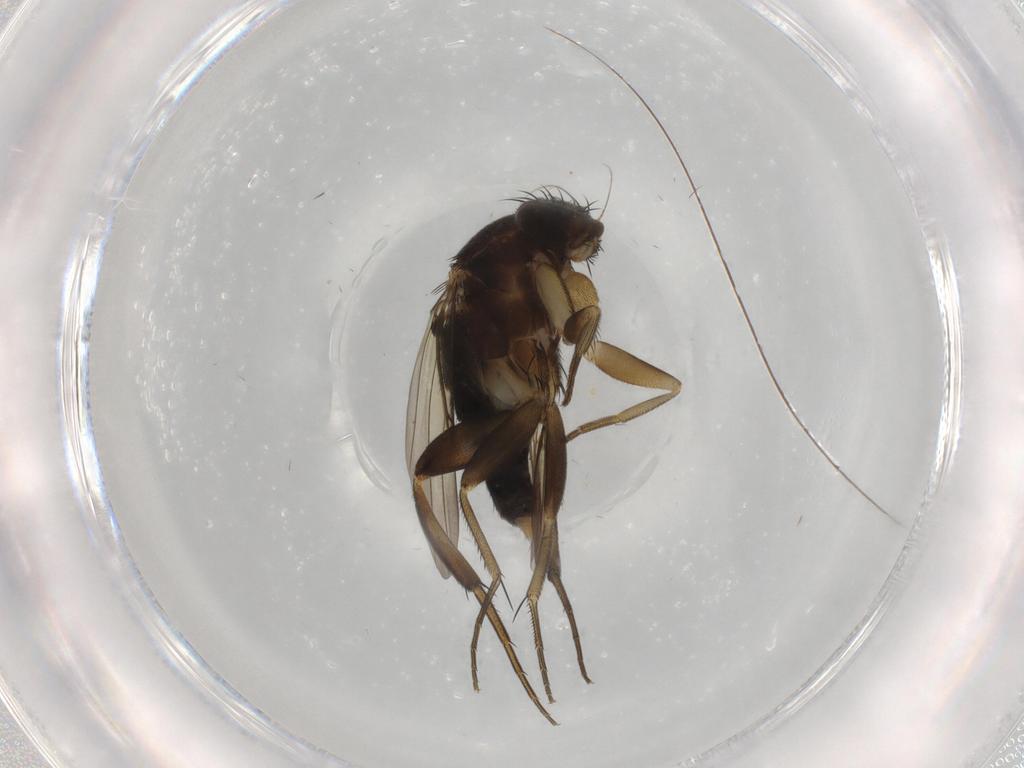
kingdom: Animalia
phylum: Arthropoda
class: Insecta
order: Diptera
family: Phoridae
